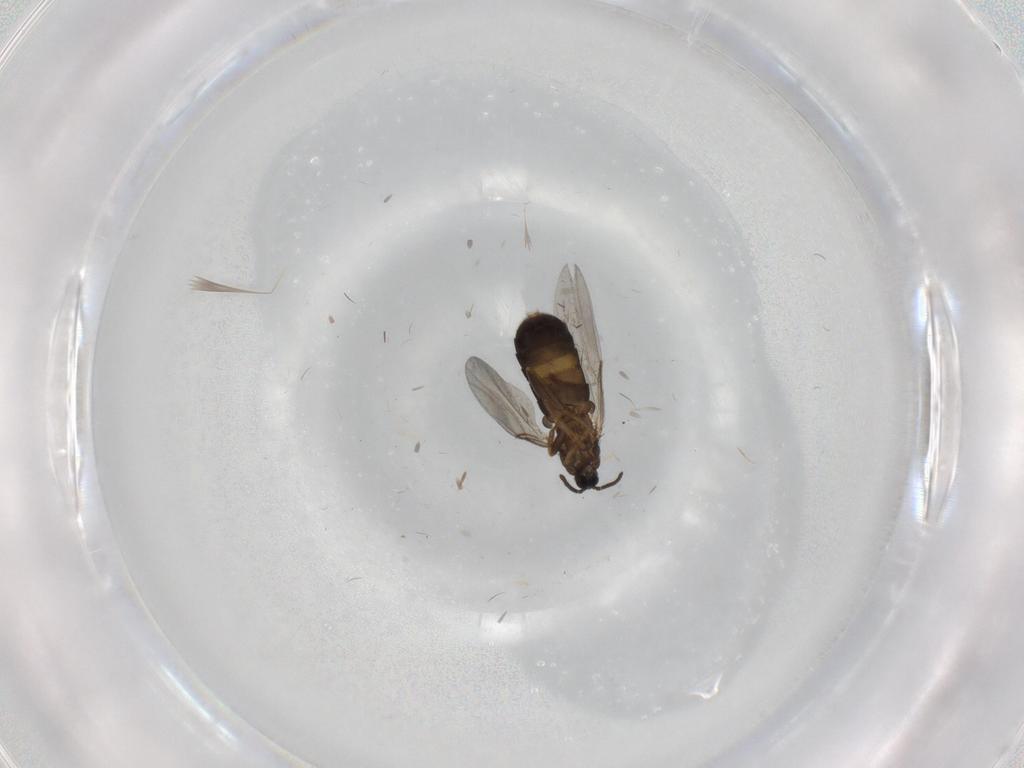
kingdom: Animalia
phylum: Arthropoda
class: Insecta
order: Diptera
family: Scatopsidae
